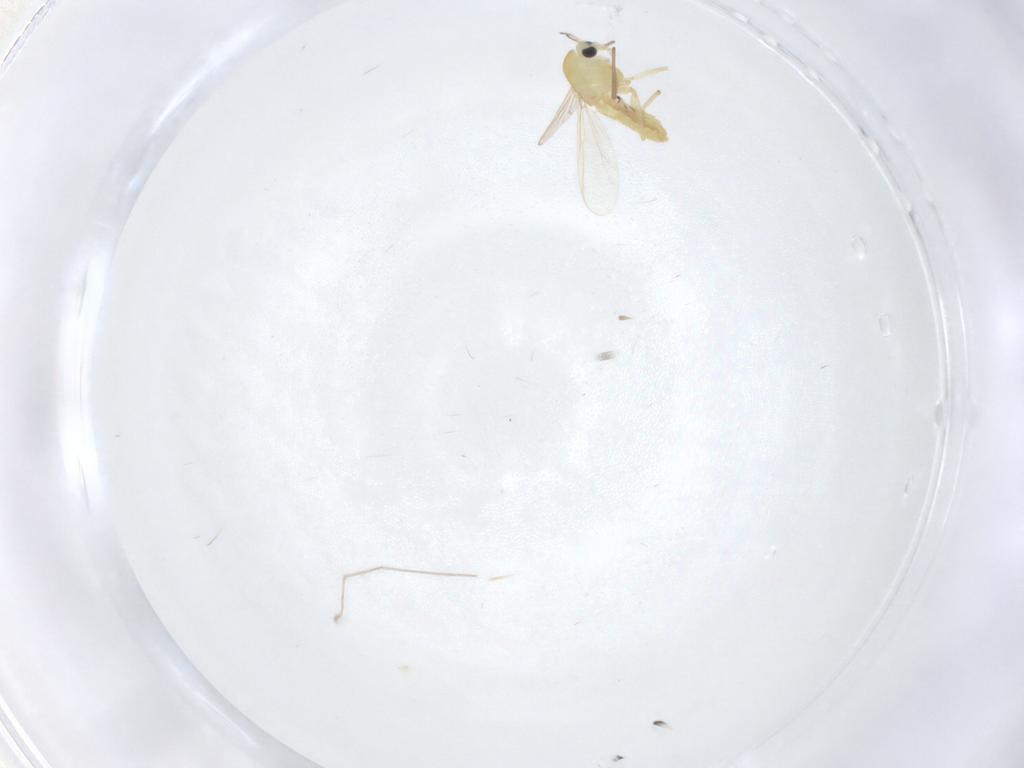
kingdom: Animalia
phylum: Arthropoda
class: Insecta
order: Diptera
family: Chironomidae
